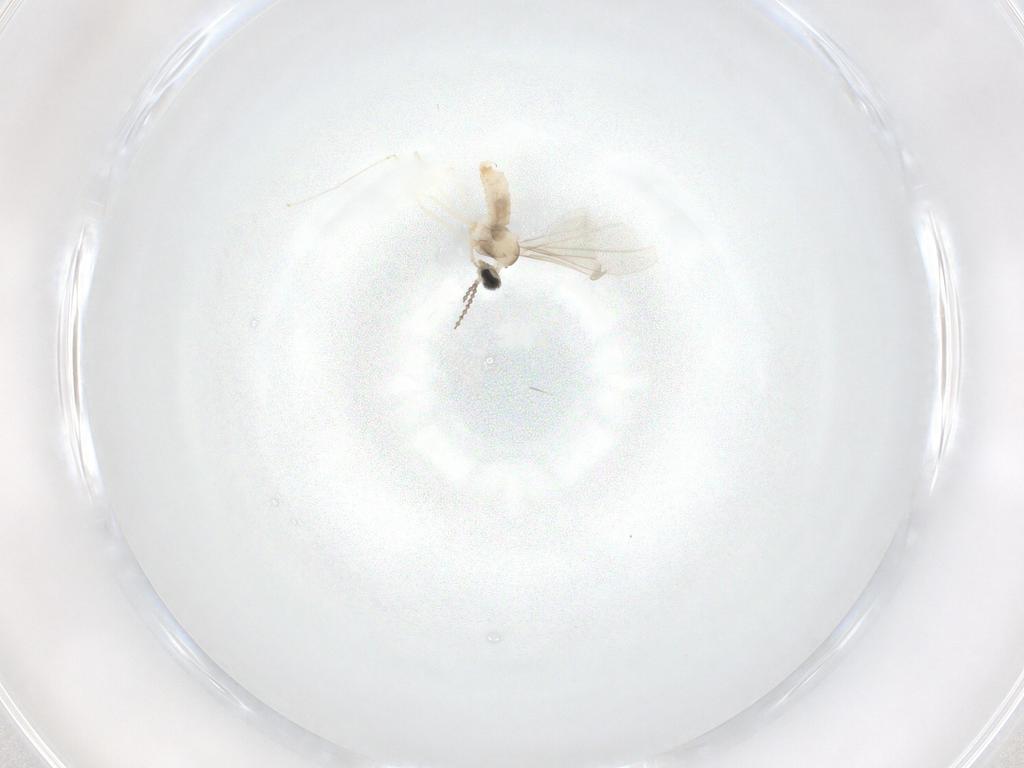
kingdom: Animalia
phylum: Arthropoda
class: Insecta
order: Diptera
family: Cecidomyiidae
